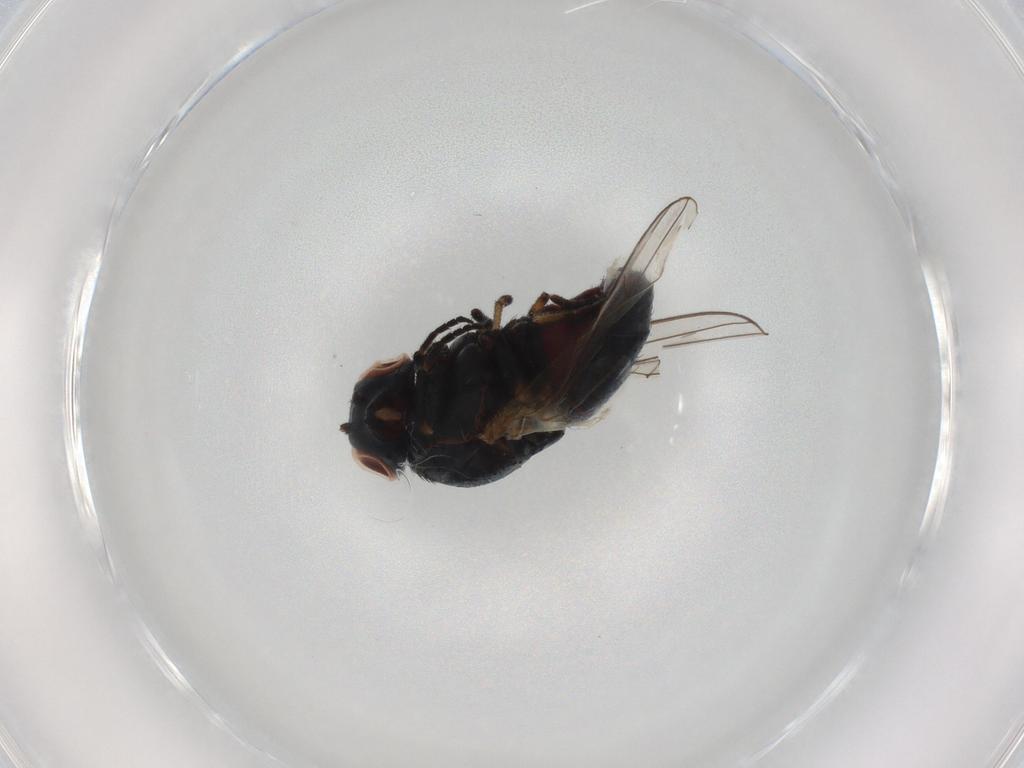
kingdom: Animalia
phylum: Arthropoda
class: Insecta
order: Diptera
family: Chamaemyiidae
